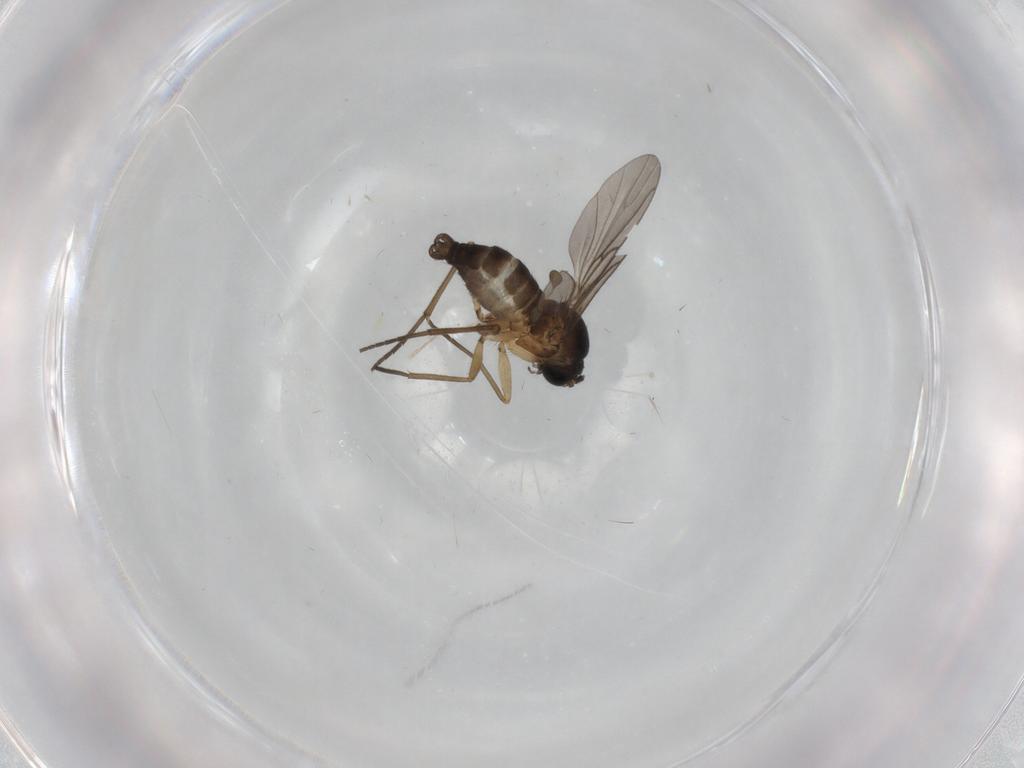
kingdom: Animalia
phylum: Arthropoda
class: Insecta
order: Diptera
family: Sciaridae
